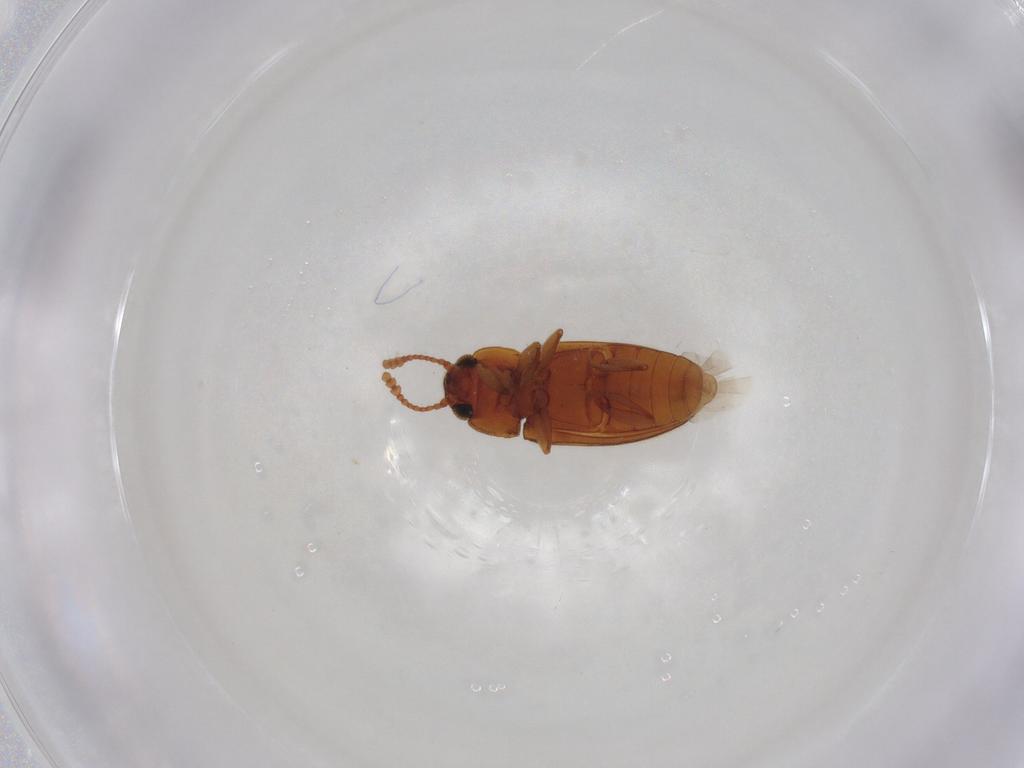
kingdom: Animalia
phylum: Arthropoda
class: Insecta
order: Coleoptera
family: Erotylidae
